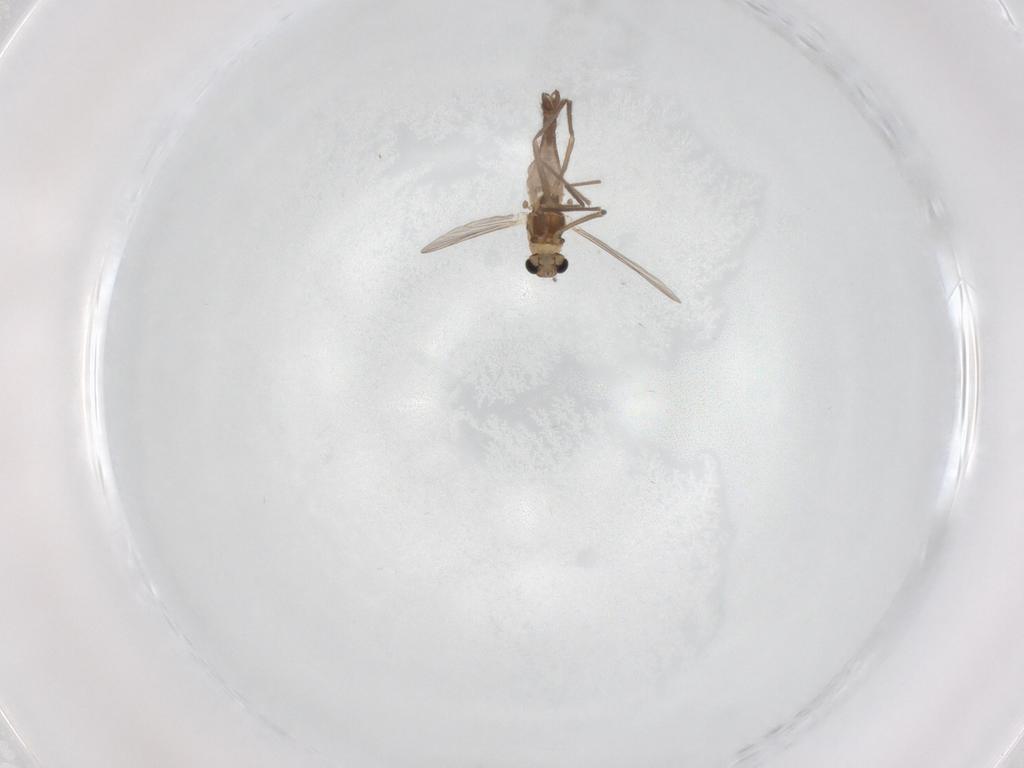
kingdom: Animalia
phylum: Arthropoda
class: Insecta
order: Diptera
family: Chironomidae
